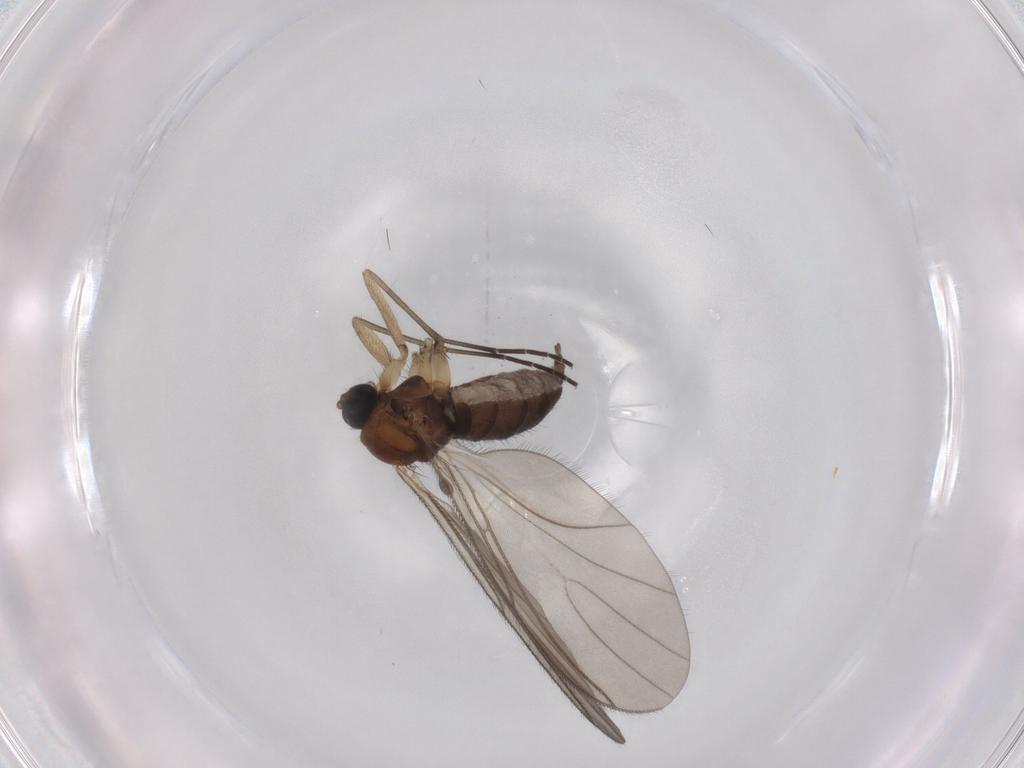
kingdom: Animalia
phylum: Arthropoda
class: Insecta
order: Diptera
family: Sciaridae
